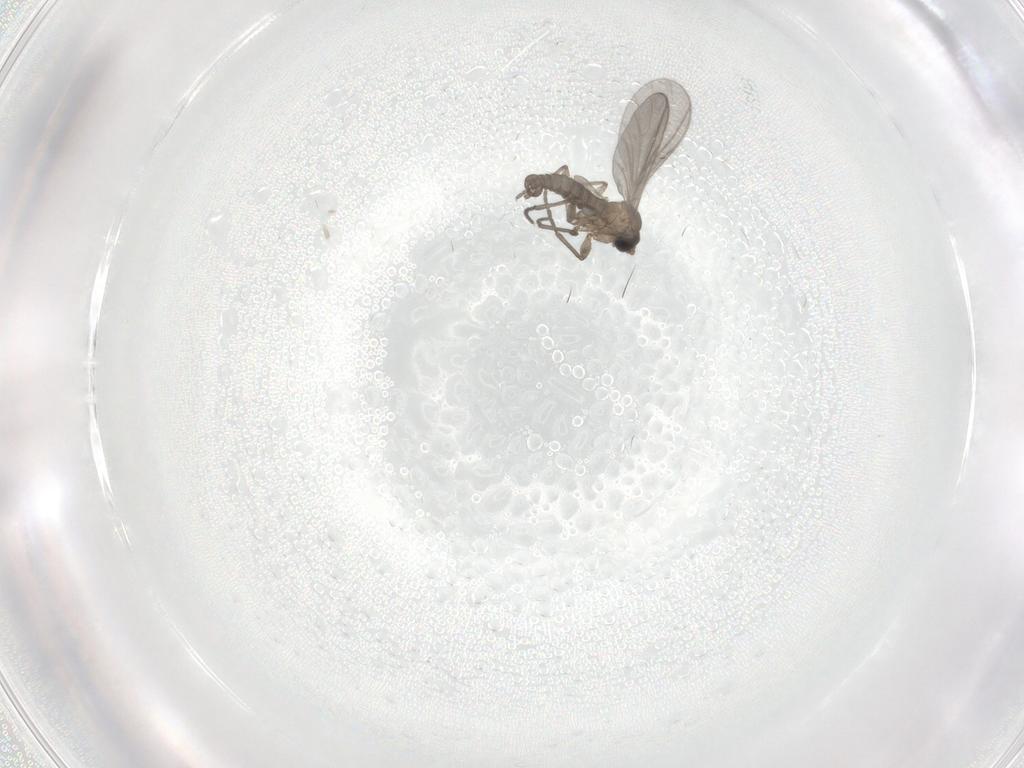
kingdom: Animalia
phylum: Arthropoda
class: Insecta
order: Diptera
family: Sciaridae
